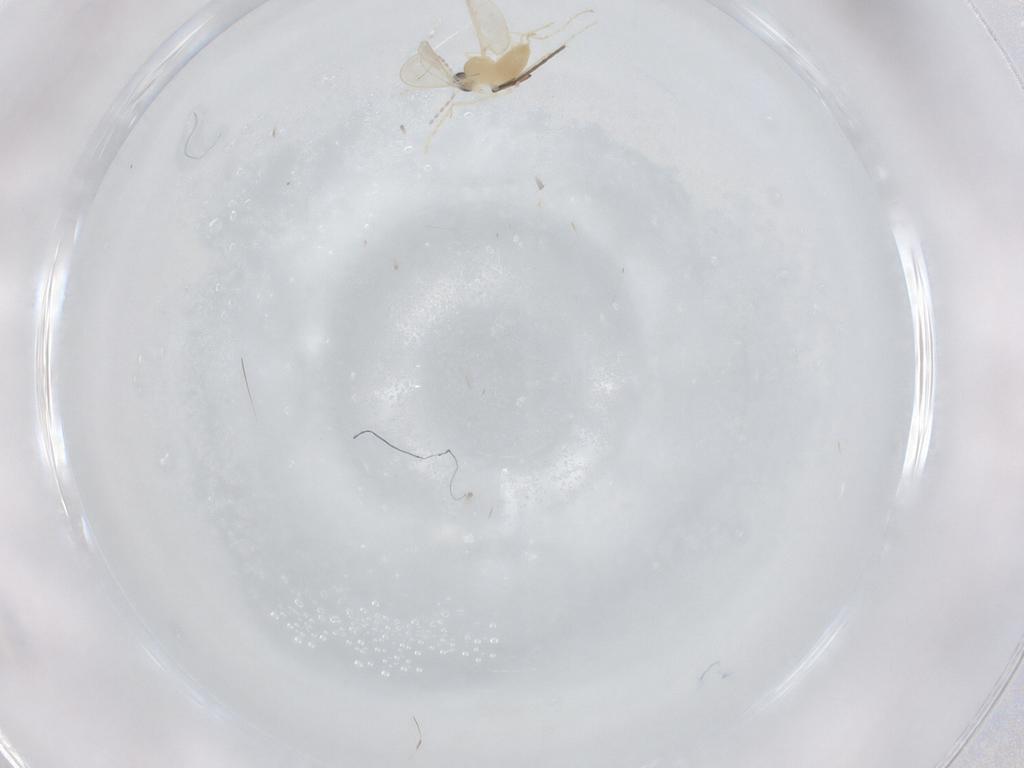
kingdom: Animalia
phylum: Arthropoda
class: Insecta
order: Diptera
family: Cecidomyiidae
